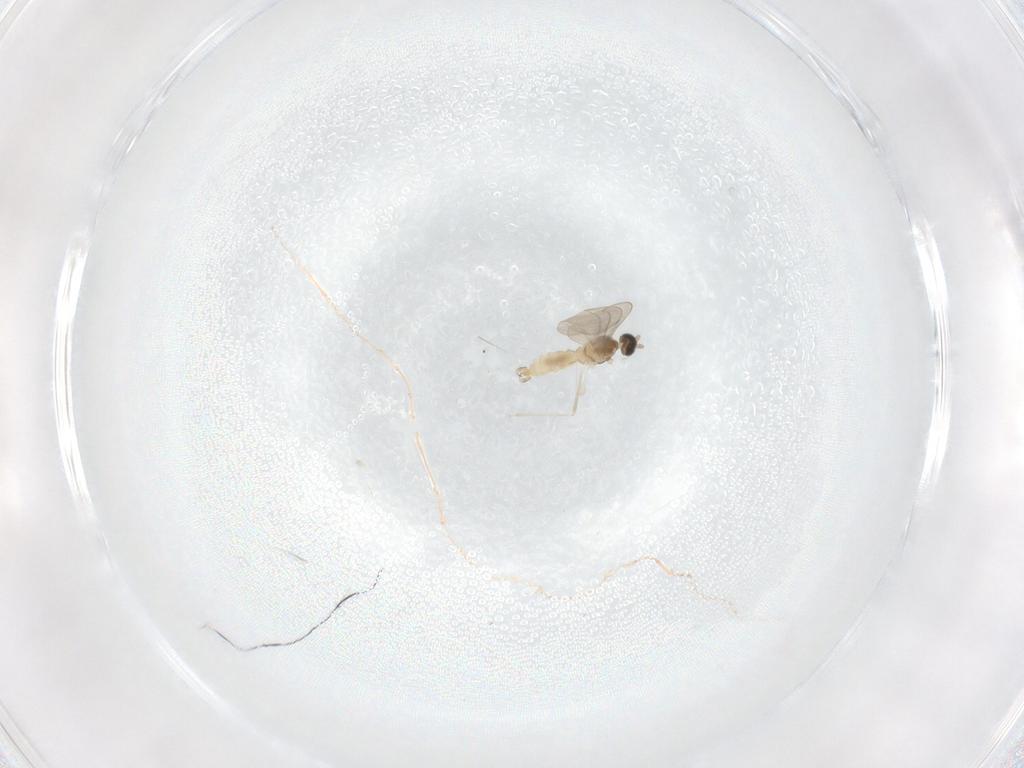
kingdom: Animalia
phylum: Arthropoda
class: Insecta
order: Diptera
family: Cecidomyiidae
